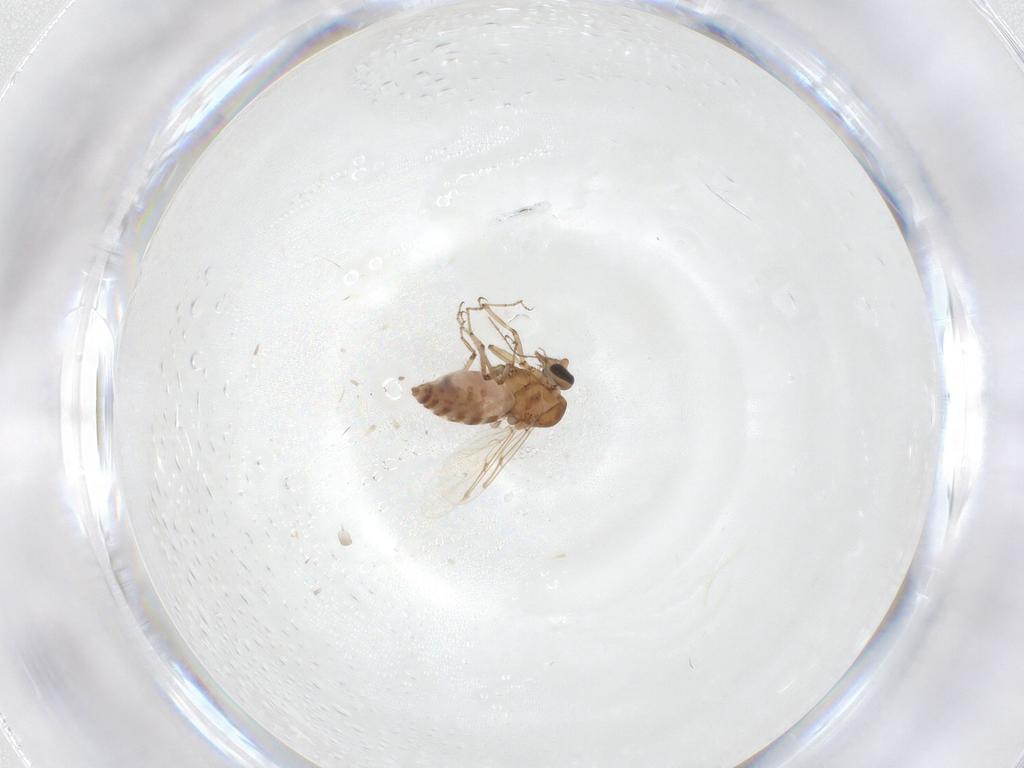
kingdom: Animalia
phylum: Arthropoda
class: Insecta
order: Diptera
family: Ceratopogonidae
